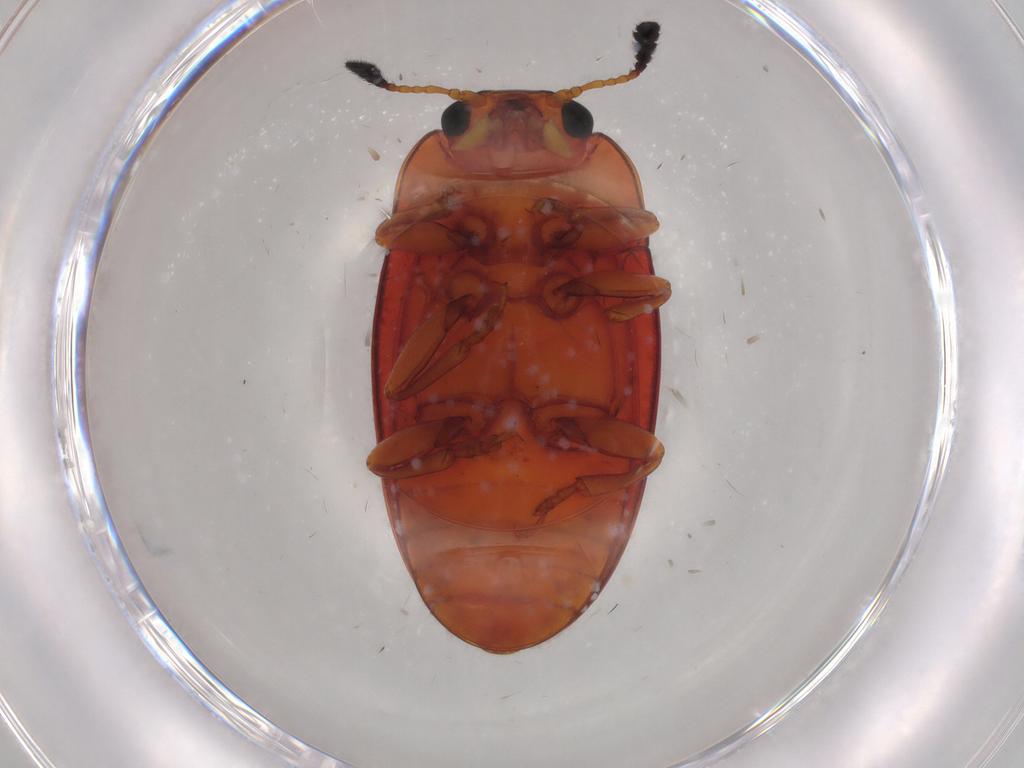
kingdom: Animalia
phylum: Arthropoda
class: Insecta
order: Coleoptera
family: Erotylidae
